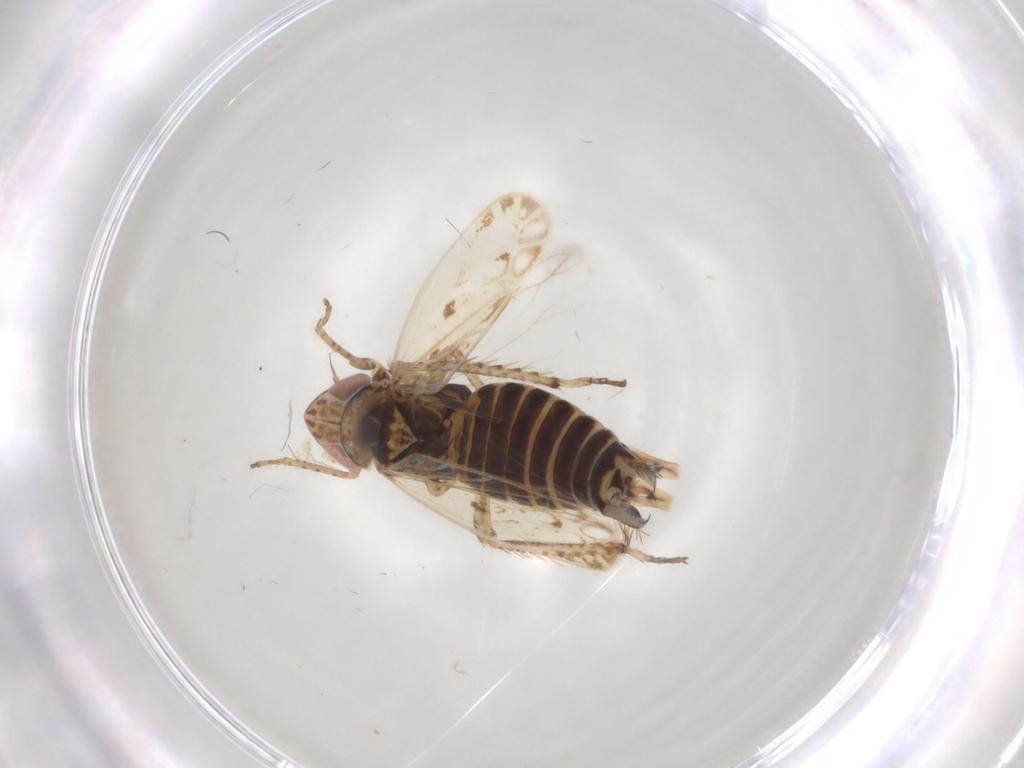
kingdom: Animalia
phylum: Arthropoda
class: Insecta
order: Hemiptera
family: Cicadellidae
